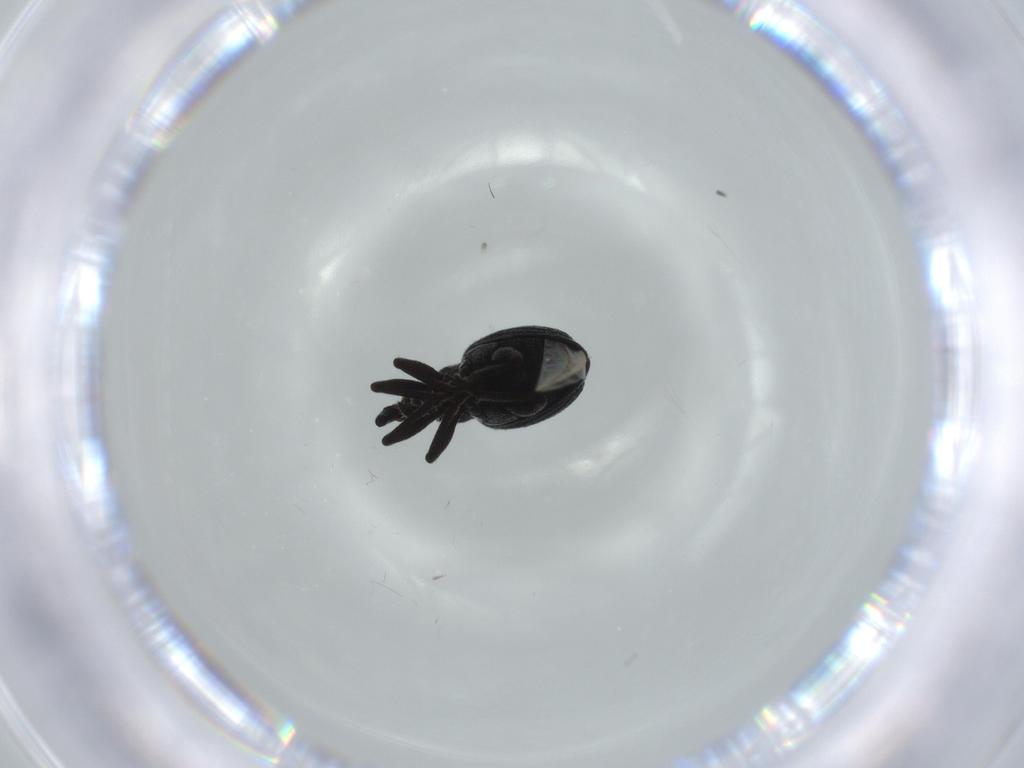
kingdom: Animalia
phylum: Arthropoda
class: Insecta
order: Coleoptera
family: Brentidae
